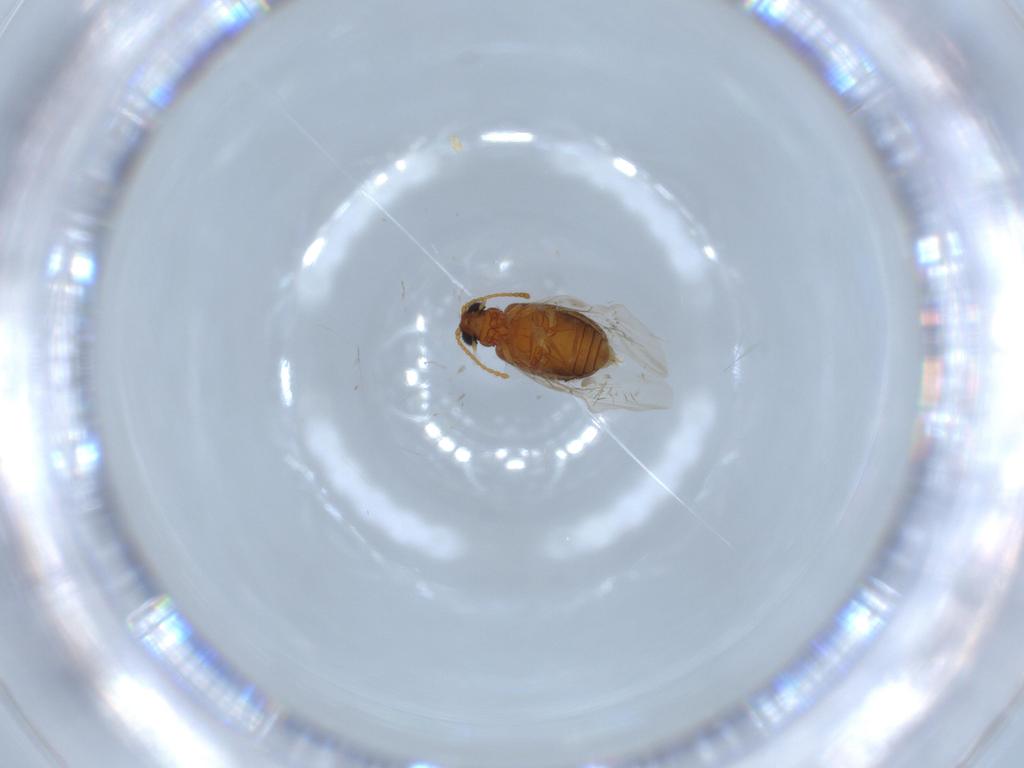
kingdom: Animalia
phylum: Arthropoda
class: Insecta
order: Coleoptera
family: Aderidae
